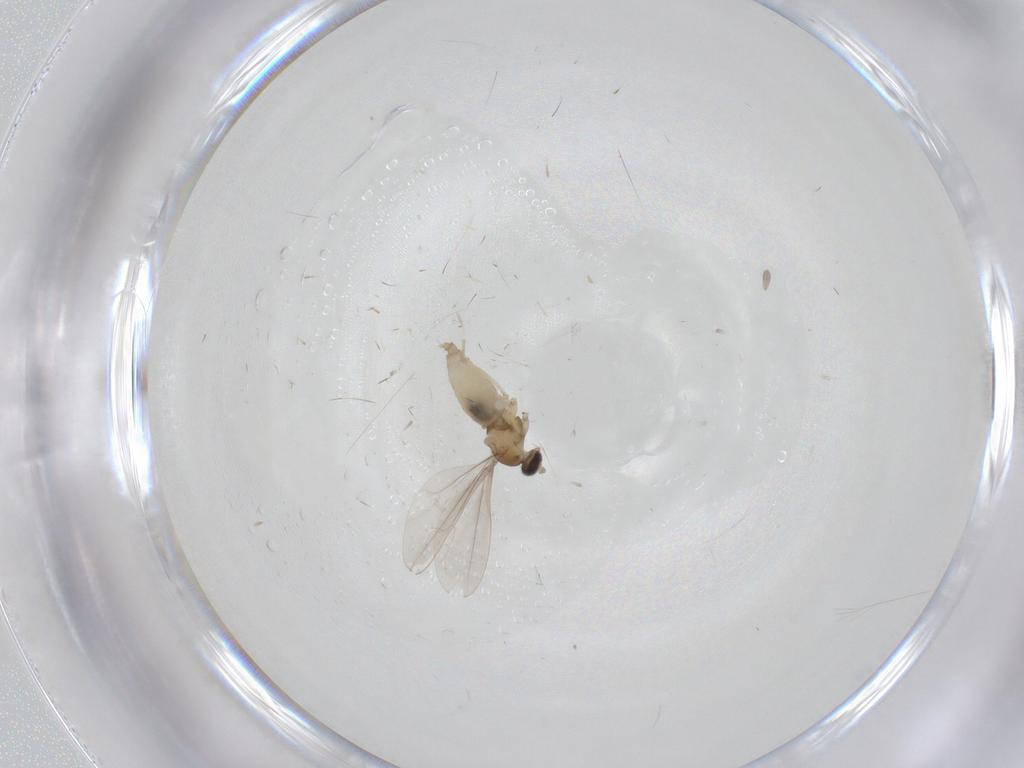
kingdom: Animalia
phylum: Arthropoda
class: Insecta
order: Diptera
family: Cecidomyiidae
